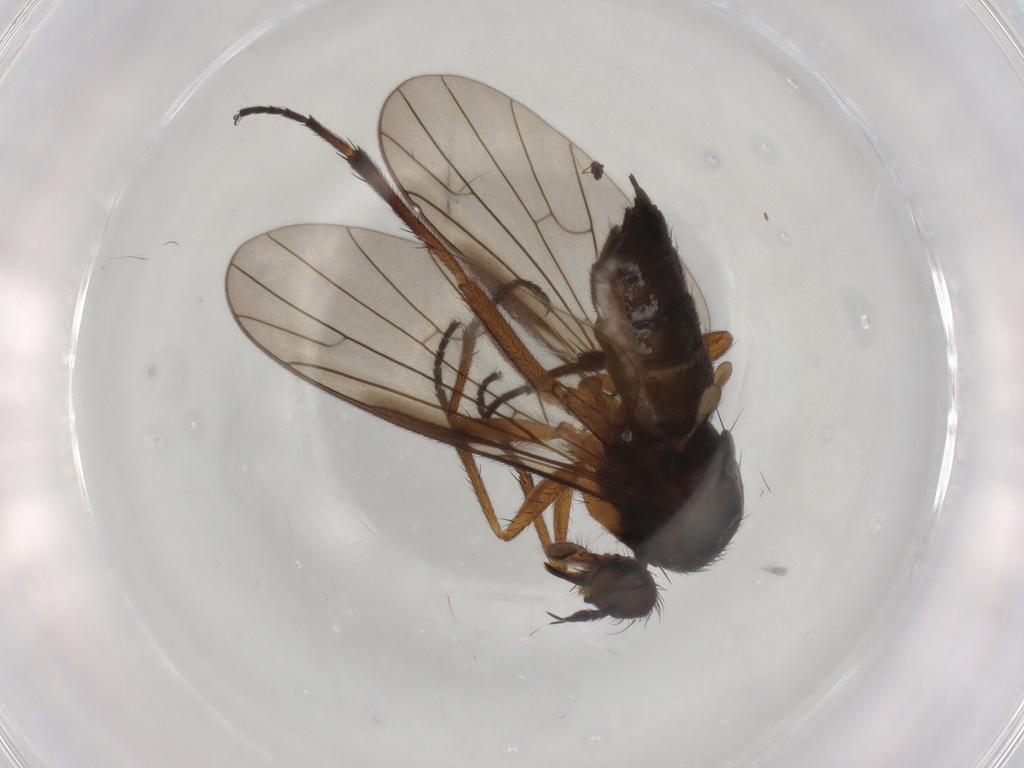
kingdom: Animalia
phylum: Arthropoda
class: Insecta
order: Diptera
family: Empididae
